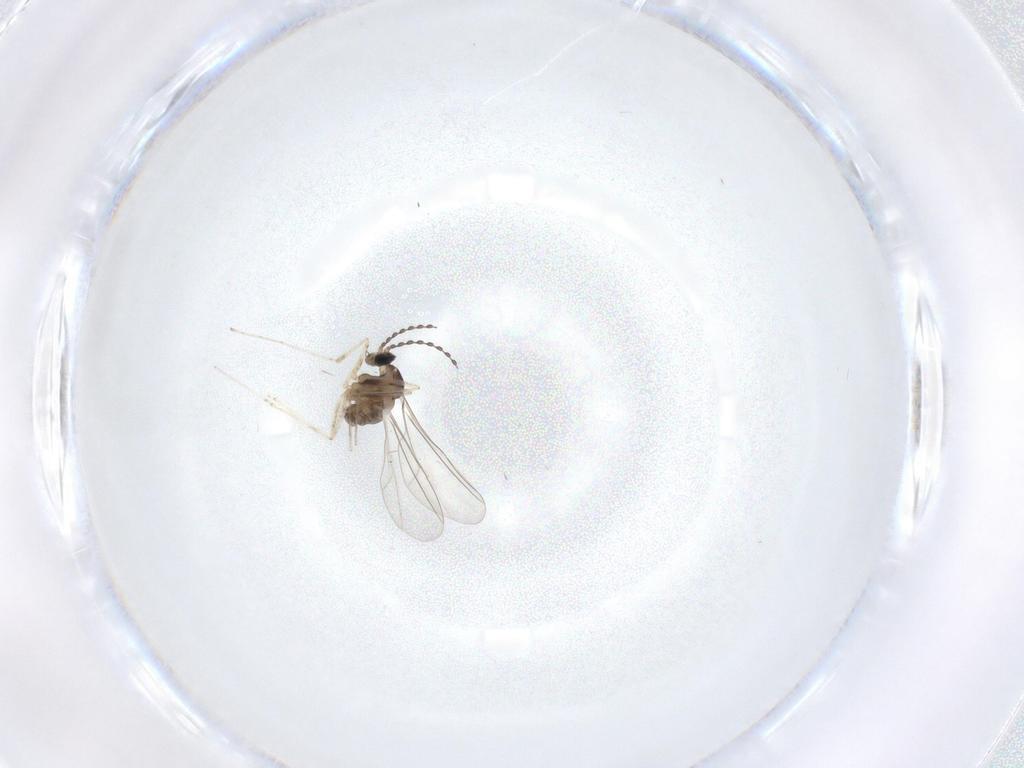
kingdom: Animalia
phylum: Arthropoda
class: Insecta
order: Diptera
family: Cecidomyiidae
